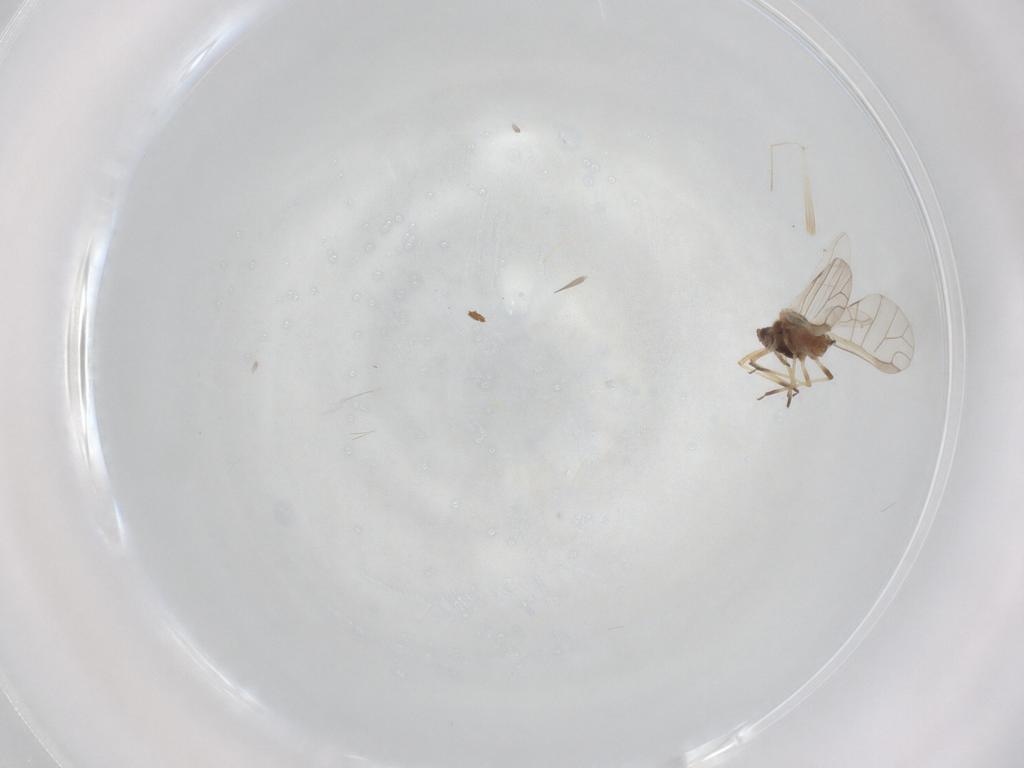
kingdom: Animalia
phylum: Arthropoda
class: Insecta
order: Hemiptera
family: Aphididae
